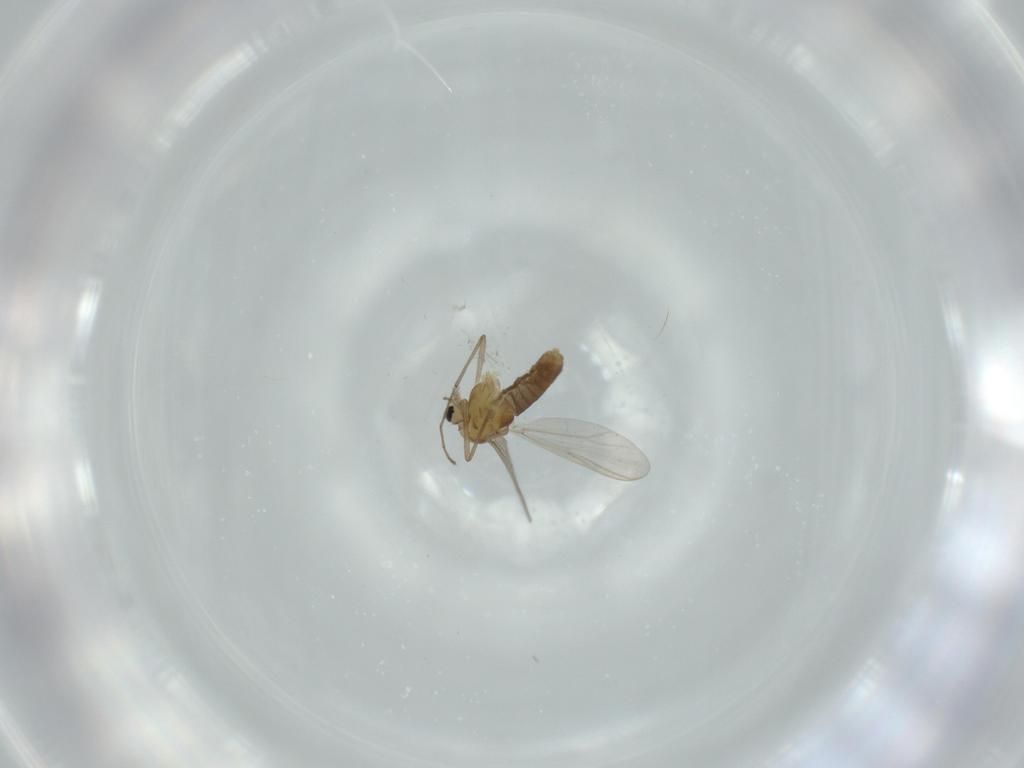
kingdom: Animalia
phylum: Arthropoda
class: Insecta
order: Diptera
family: Chironomidae
